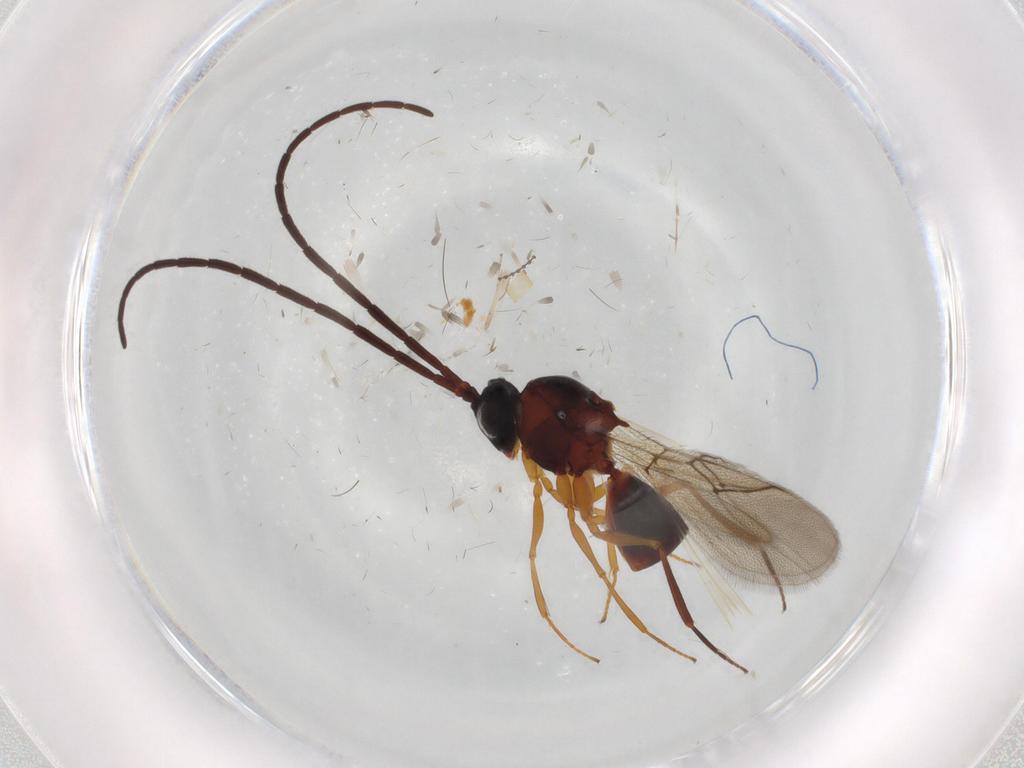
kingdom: Animalia
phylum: Arthropoda
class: Insecta
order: Hymenoptera
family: Figitidae
